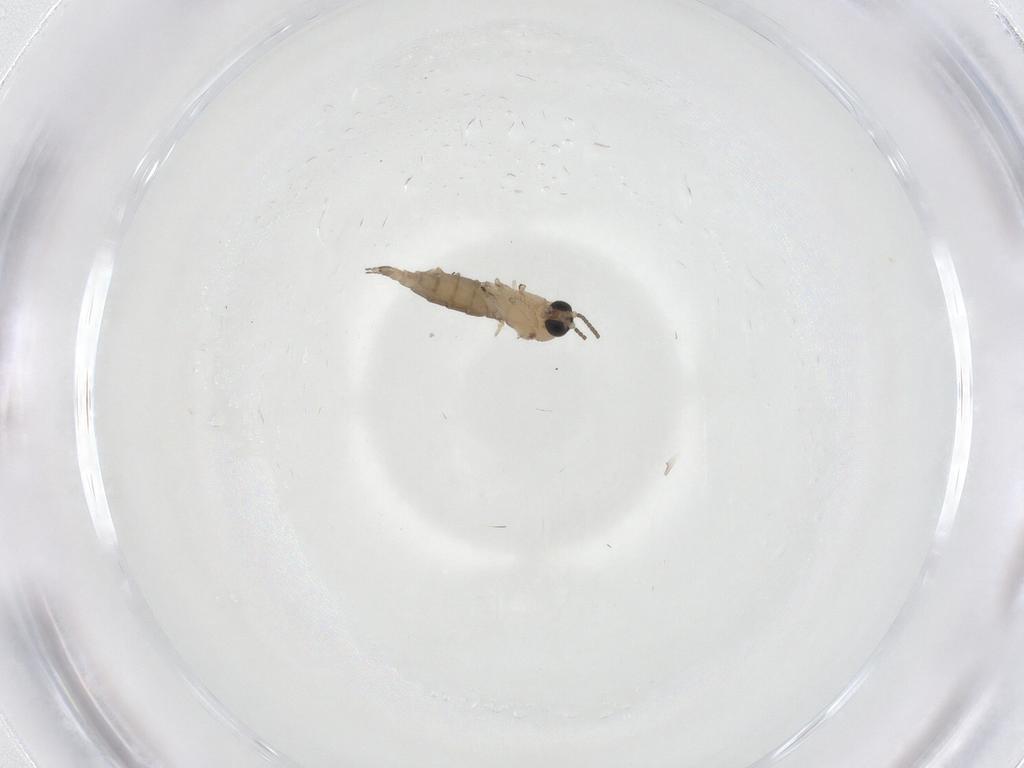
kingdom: Animalia
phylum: Arthropoda
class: Insecta
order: Diptera
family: Sciaridae
